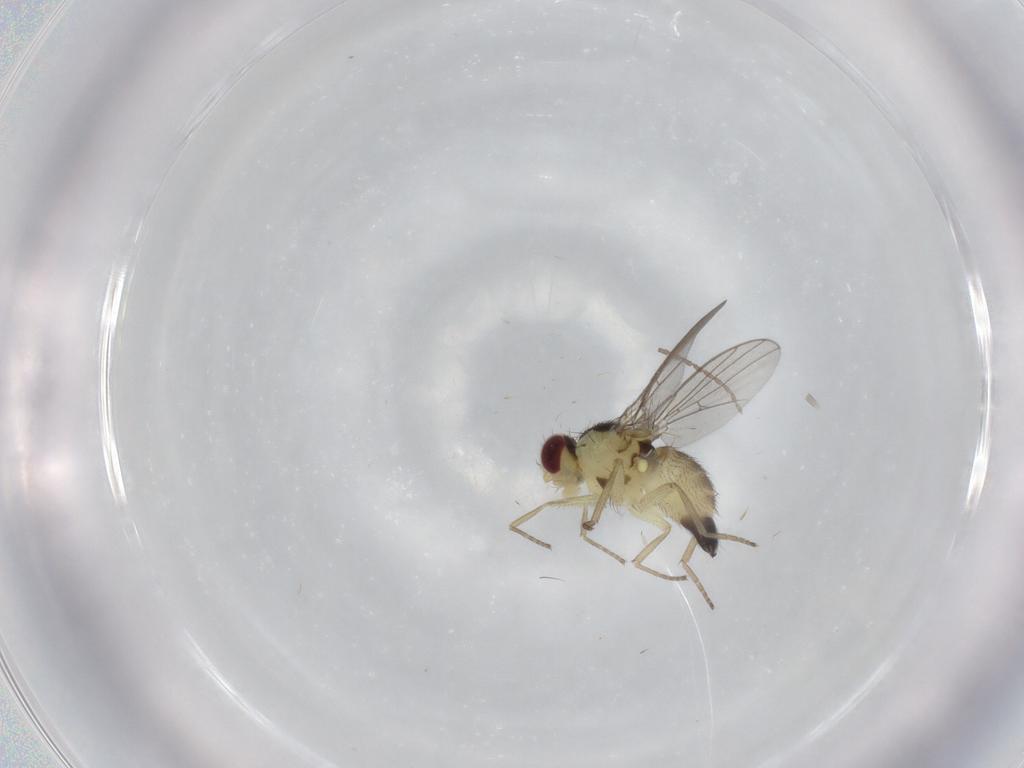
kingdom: Animalia
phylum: Arthropoda
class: Insecta
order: Diptera
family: Agromyzidae
